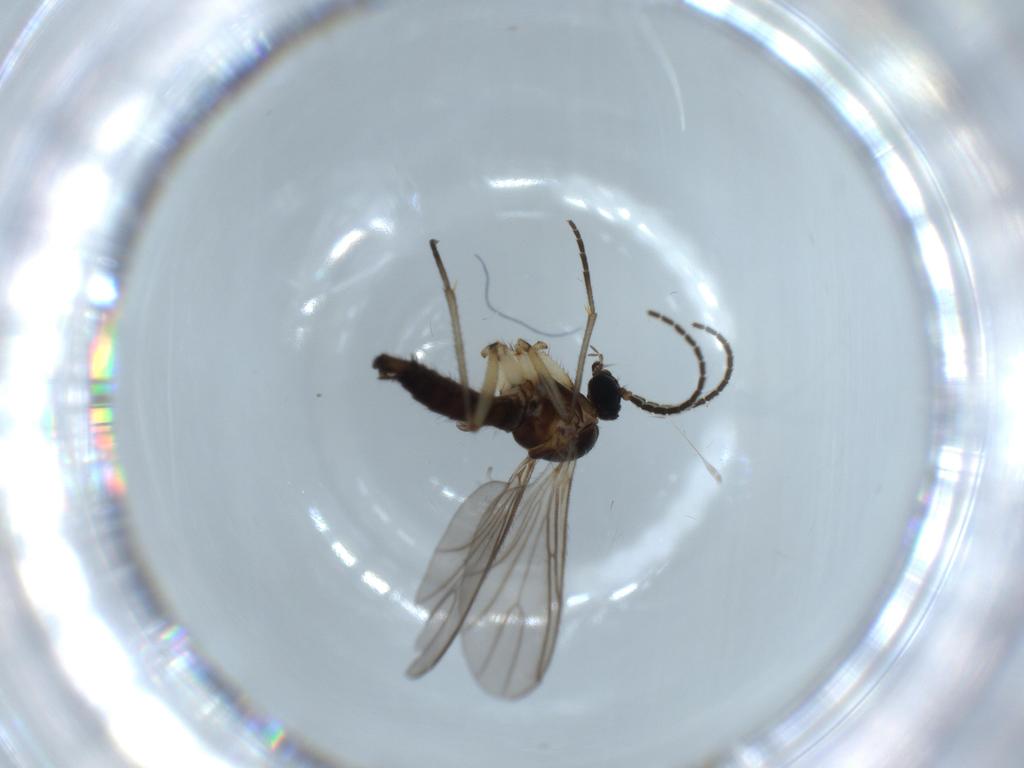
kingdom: Animalia
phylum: Arthropoda
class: Insecta
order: Diptera
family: Sciaridae
